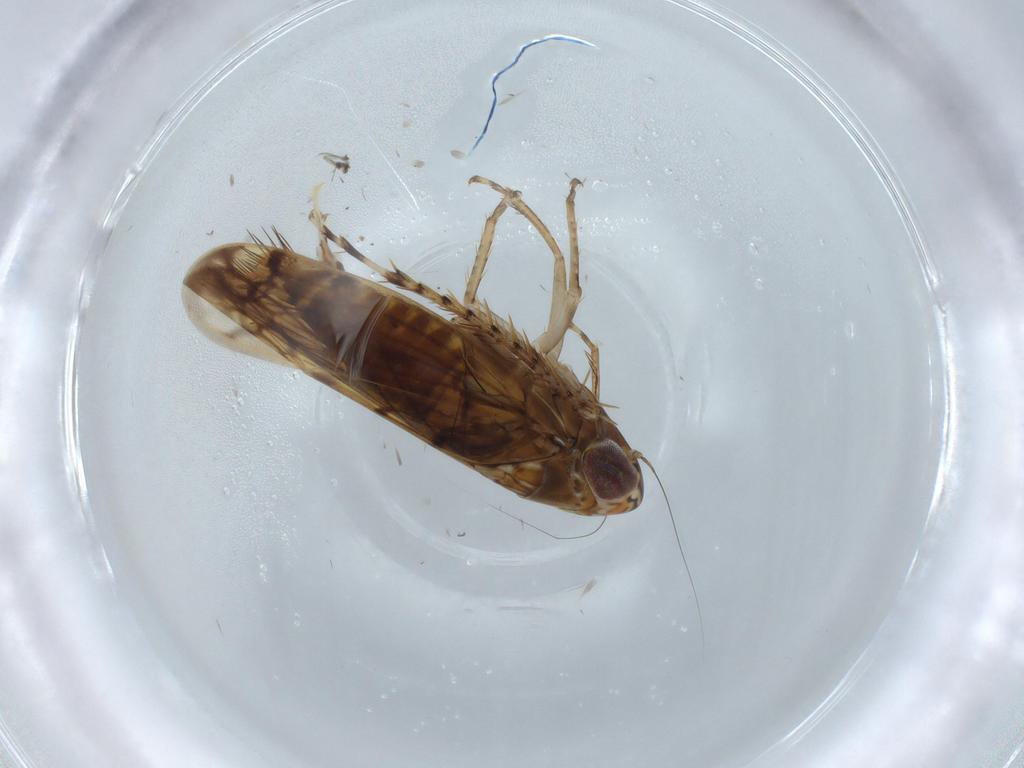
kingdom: Animalia
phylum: Arthropoda
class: Insecta
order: Hemiptera
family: Cicadellidae
